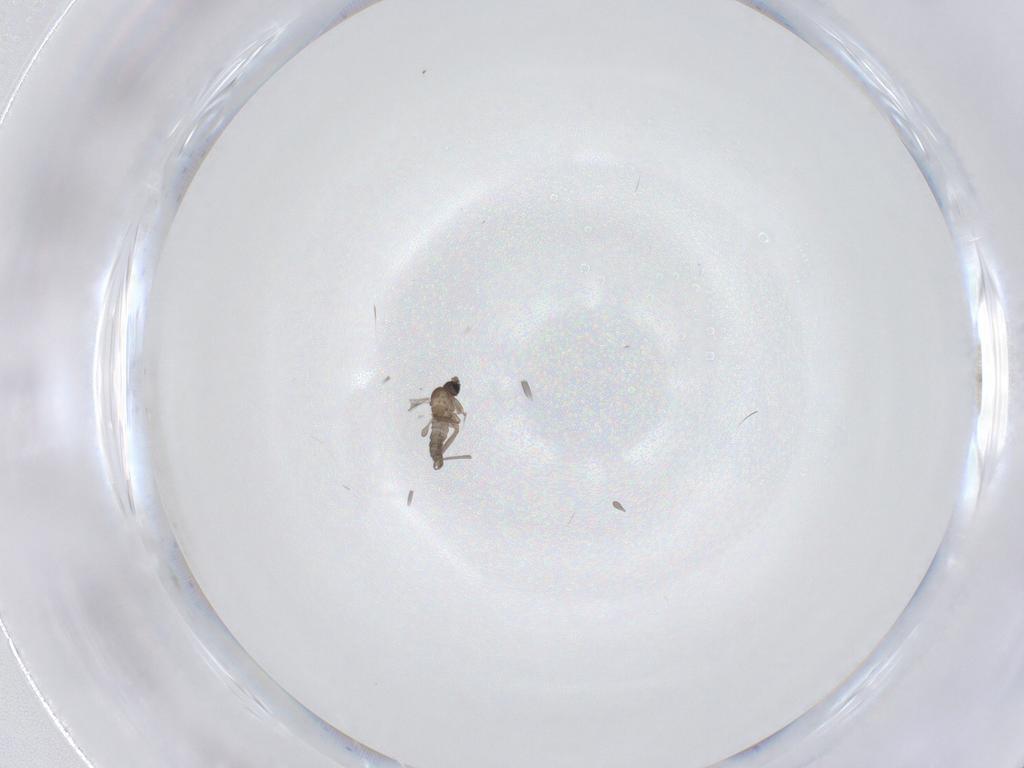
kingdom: Animalia
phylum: Arthropoda
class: Insecta
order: Diptera
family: Sciaridae
